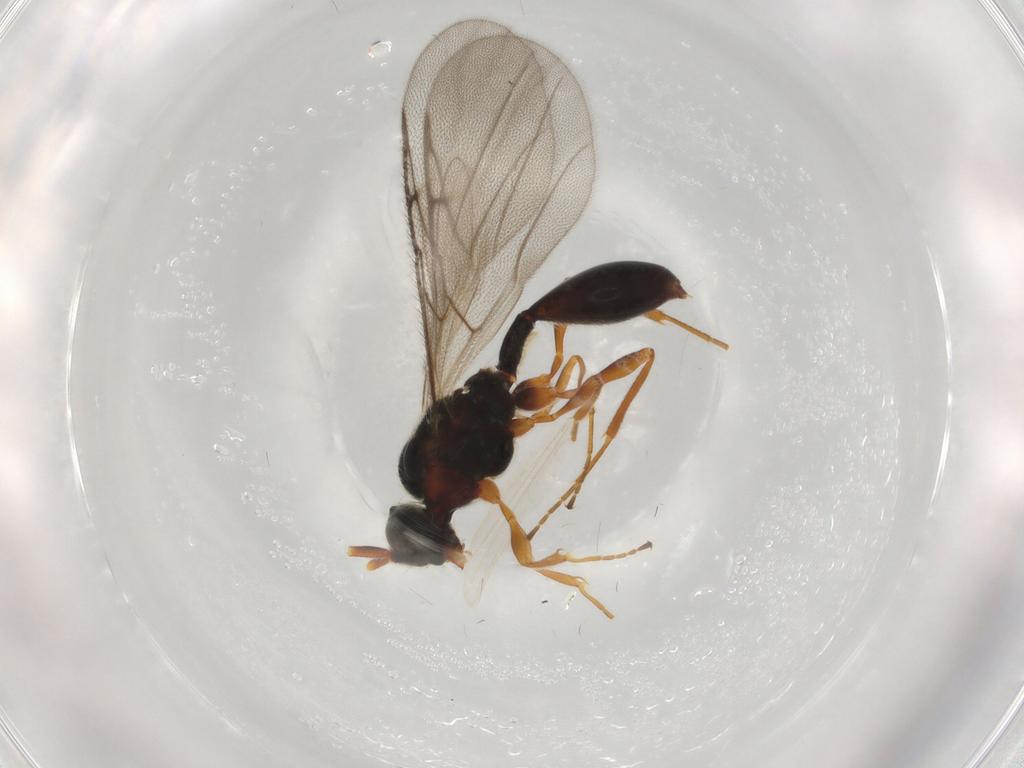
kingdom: Animalia
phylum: Arthropoda
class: Insecta
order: Hymenoptera
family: Diapriidae
